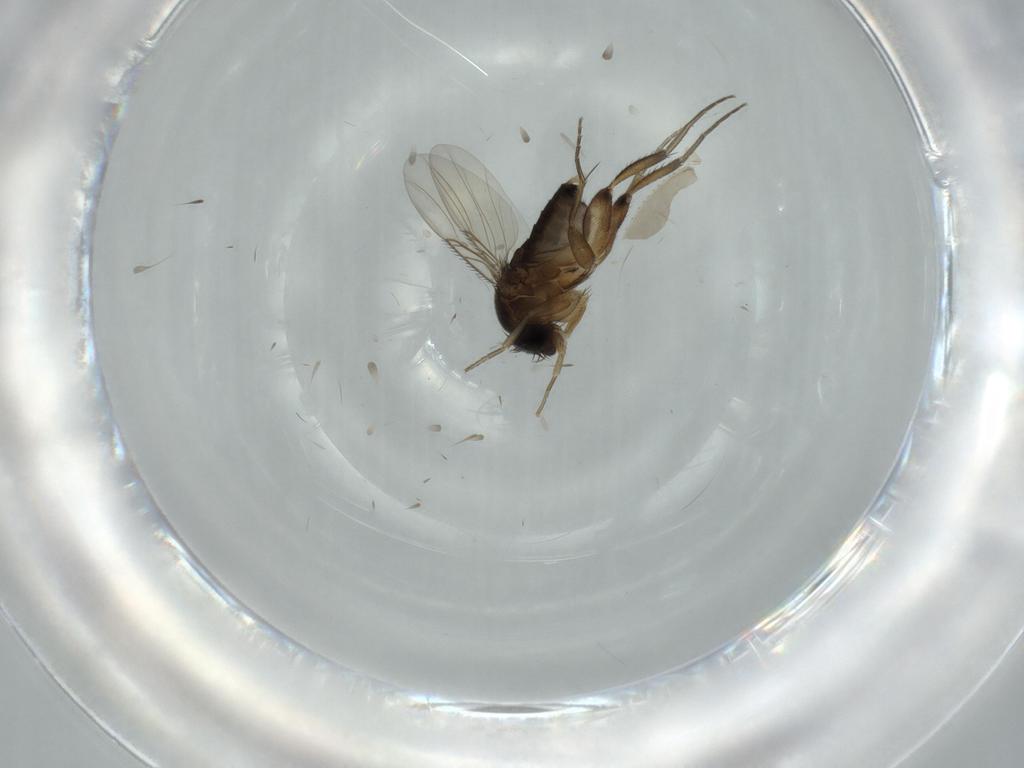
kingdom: Animalia
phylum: Arthropoda
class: Insecta
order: Diptera
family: Phoridae
